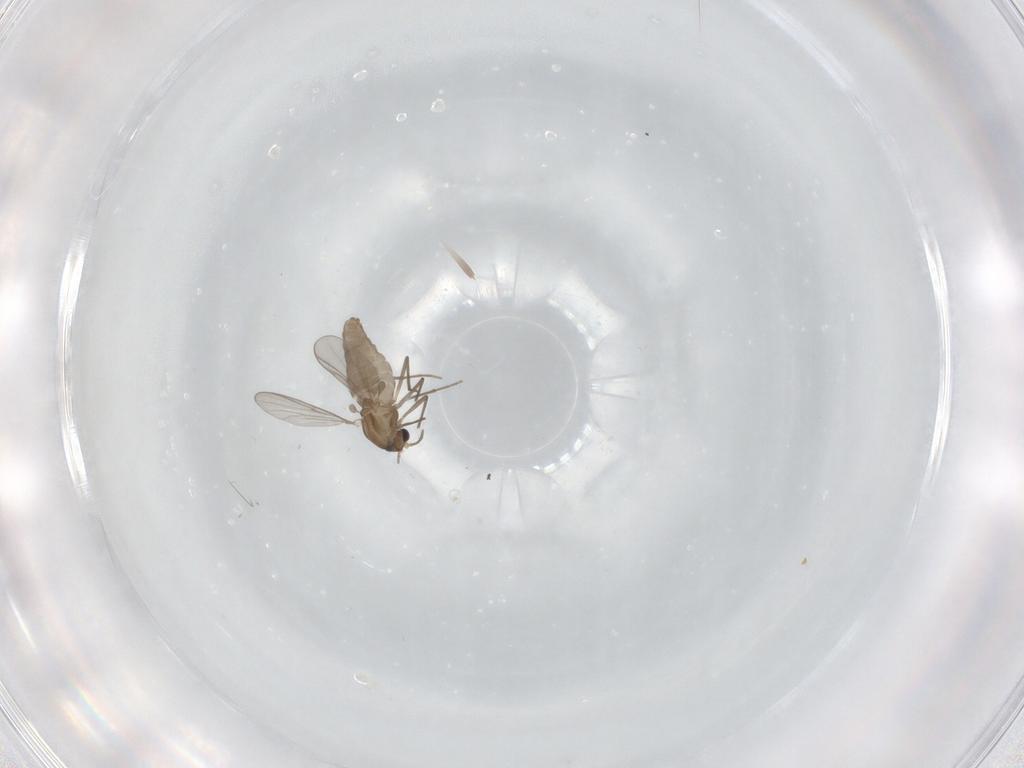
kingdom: Animalia
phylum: Arthropoda
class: Insecta
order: Diptera
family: Chironomidae
